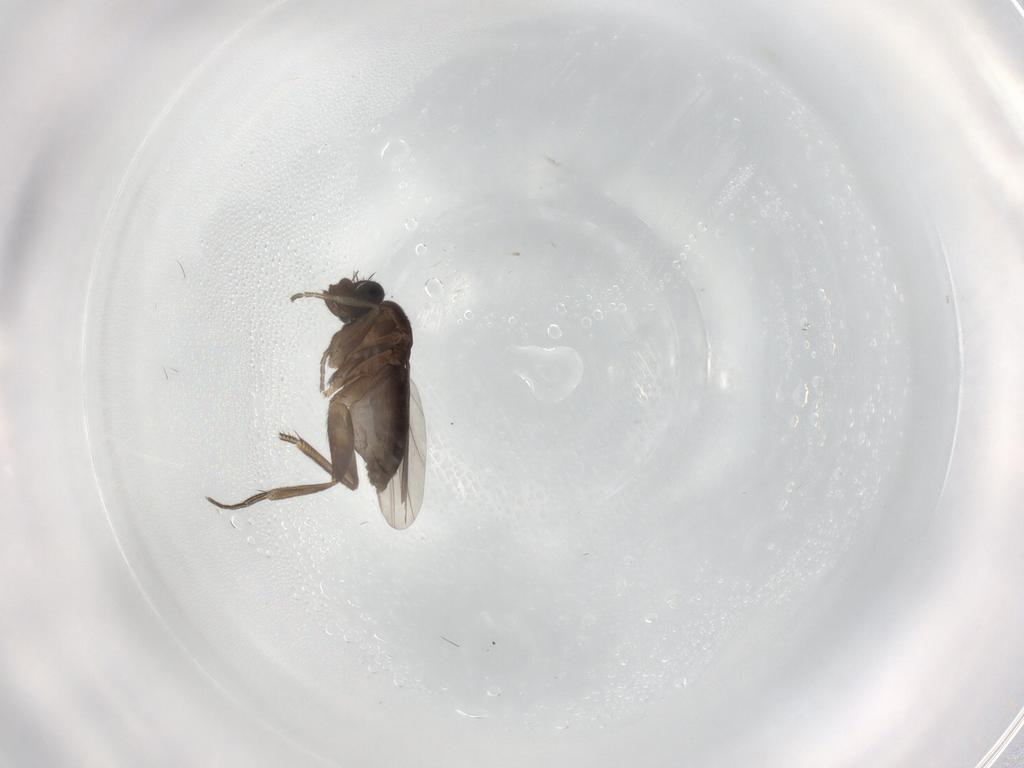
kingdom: Animalia
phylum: Arthropoda
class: Insecta
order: Diptera
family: Phoridae
